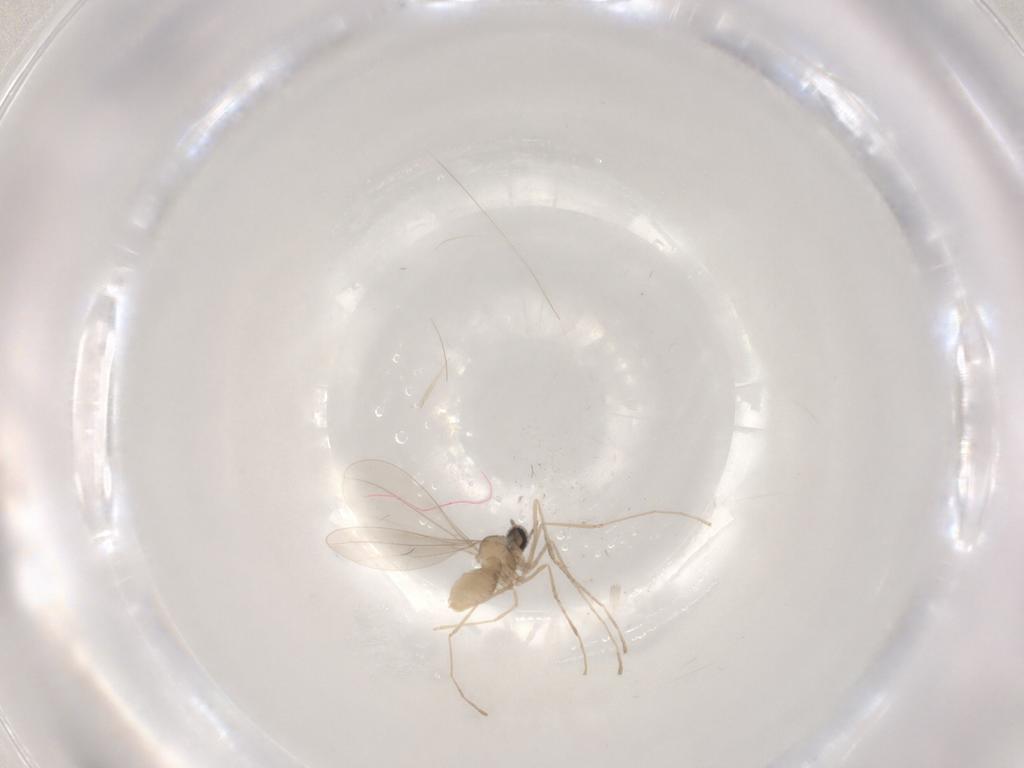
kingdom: Animalia
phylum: Arthropoda
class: Insecta
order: Diptera
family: Cecidomyiidae
